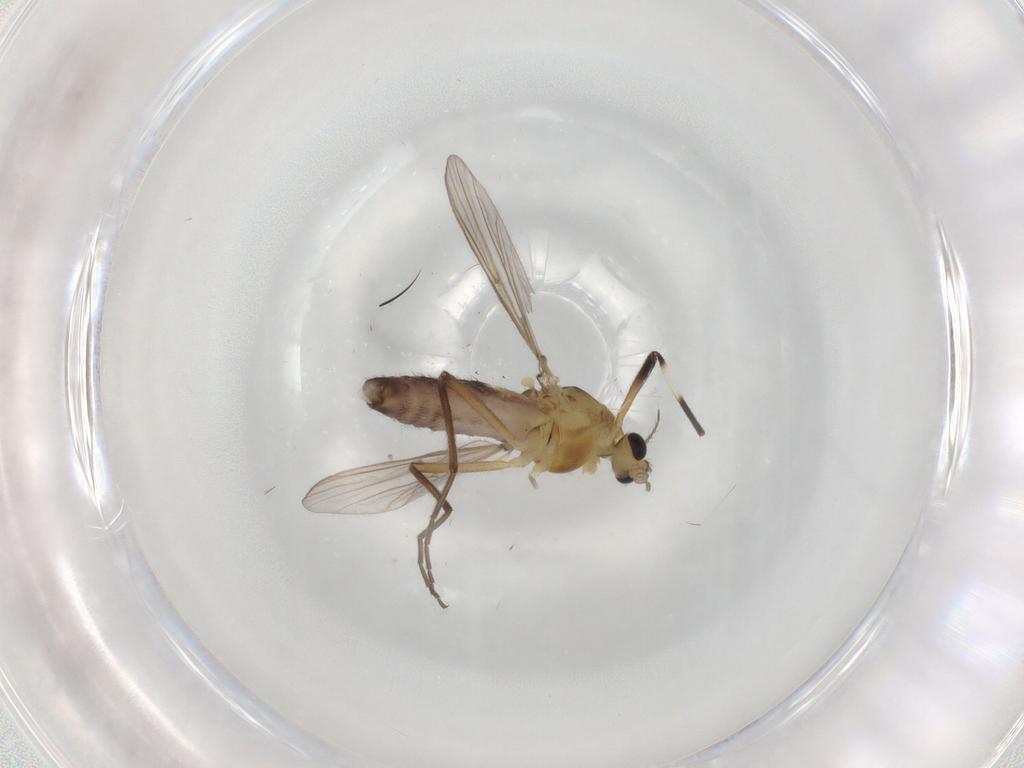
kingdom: Animalia
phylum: Arthropoda
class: Insecta
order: Diptera
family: Chironomidae
